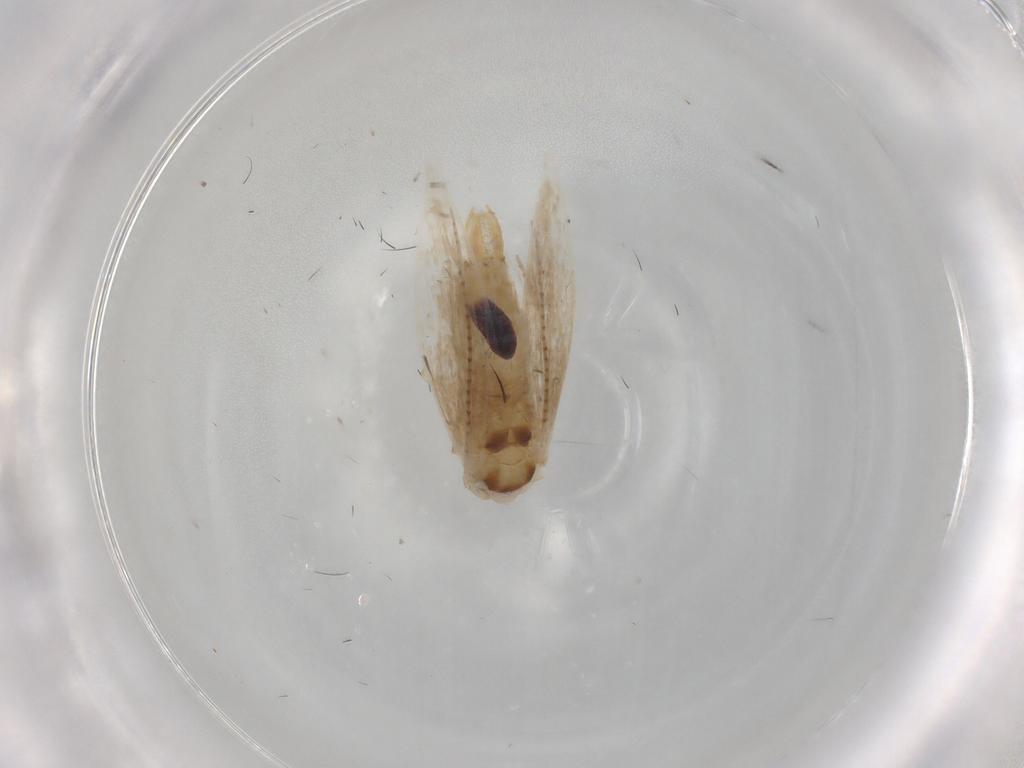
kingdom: Animalia
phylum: Arthropoda
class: Insecta
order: Lepidoptera
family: Bucculatricidae
